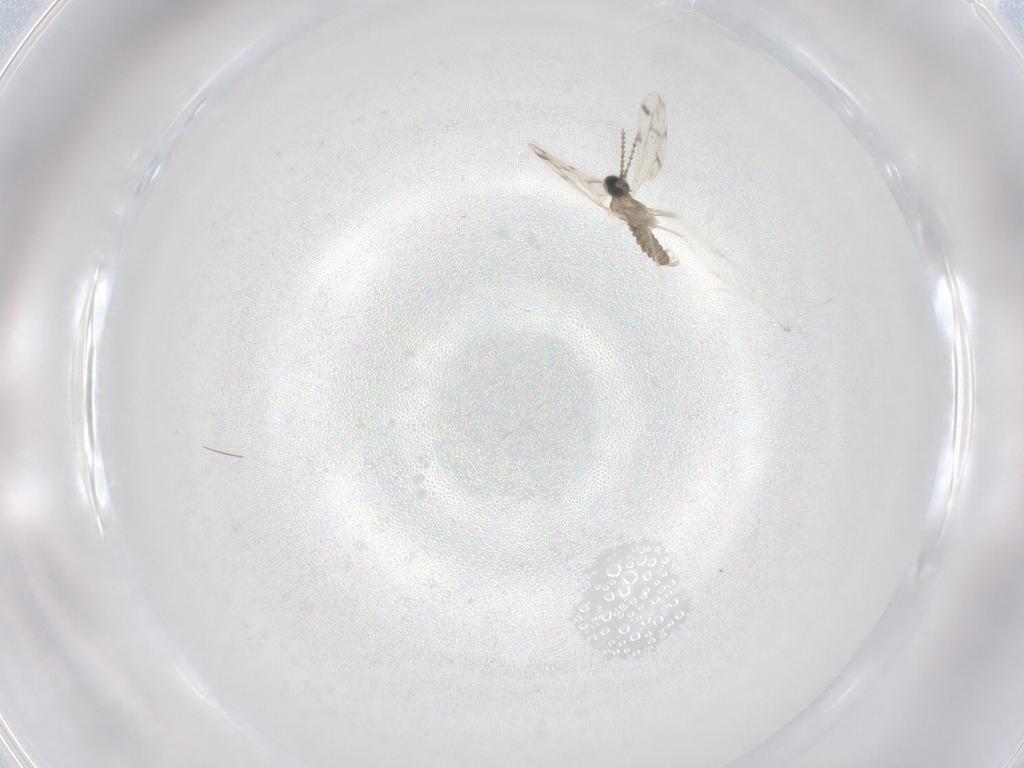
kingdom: Animalia
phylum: Arthropoda
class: Insecta
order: Diptera
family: Cecidomyiidae
